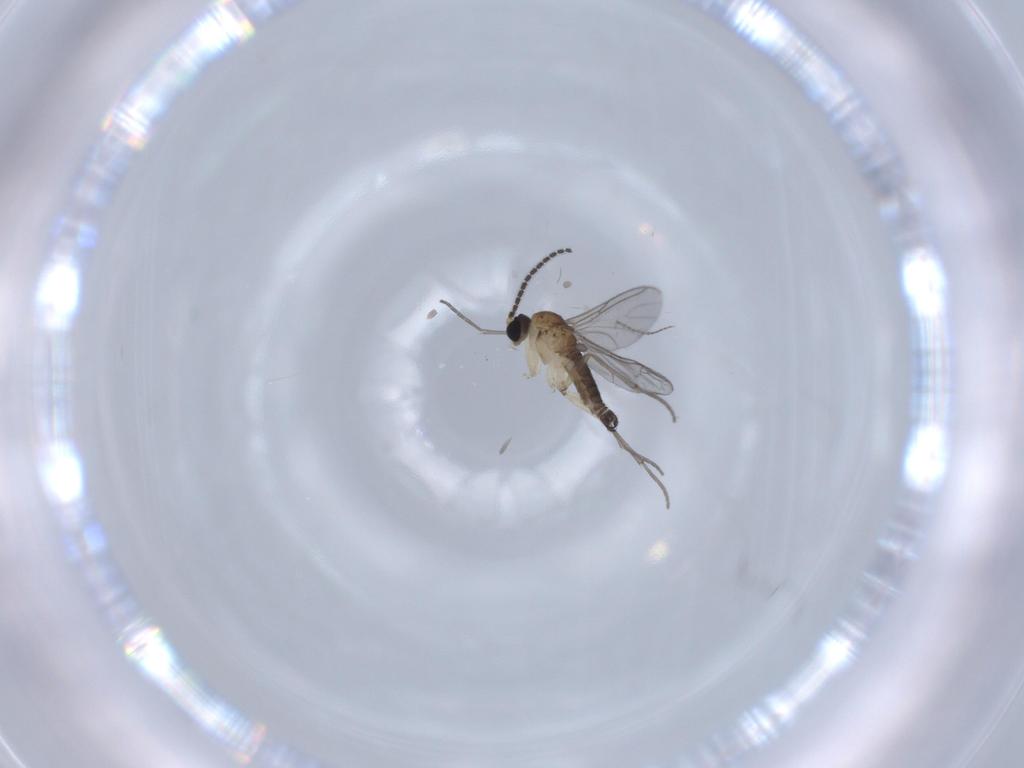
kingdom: Animalia
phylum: Arthropoda
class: Insecta
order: Diptera
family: Sciaridae
